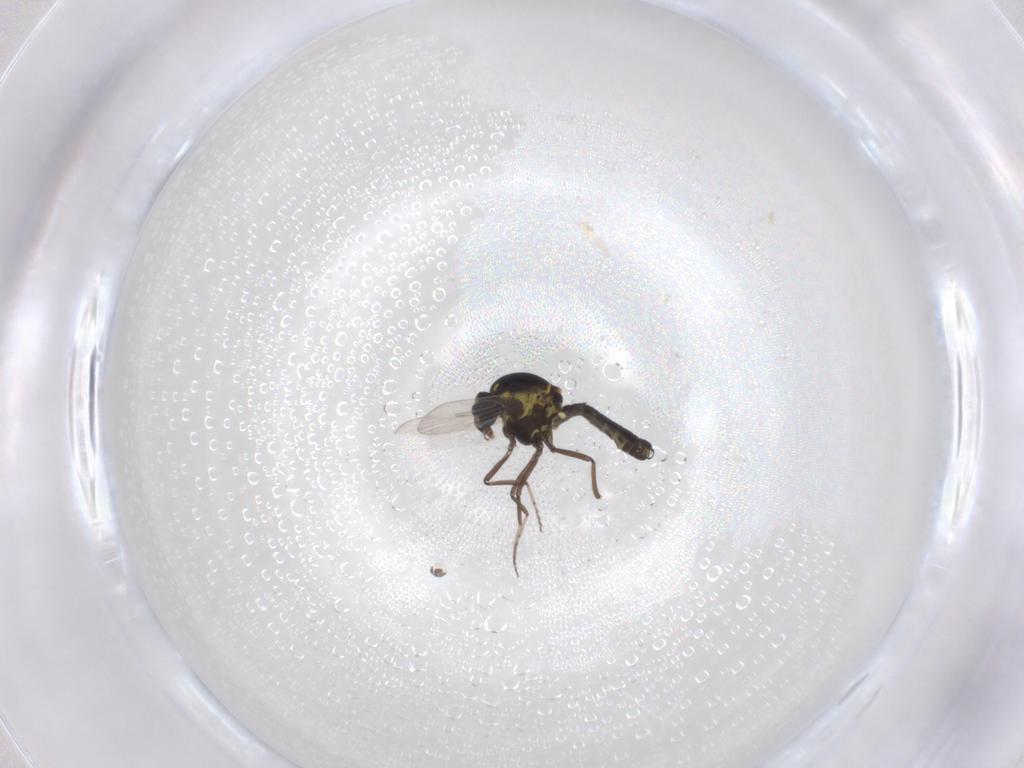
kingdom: Animalia
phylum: Arthropoda
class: Insecta
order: Diptera
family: Ceratopogonidae
